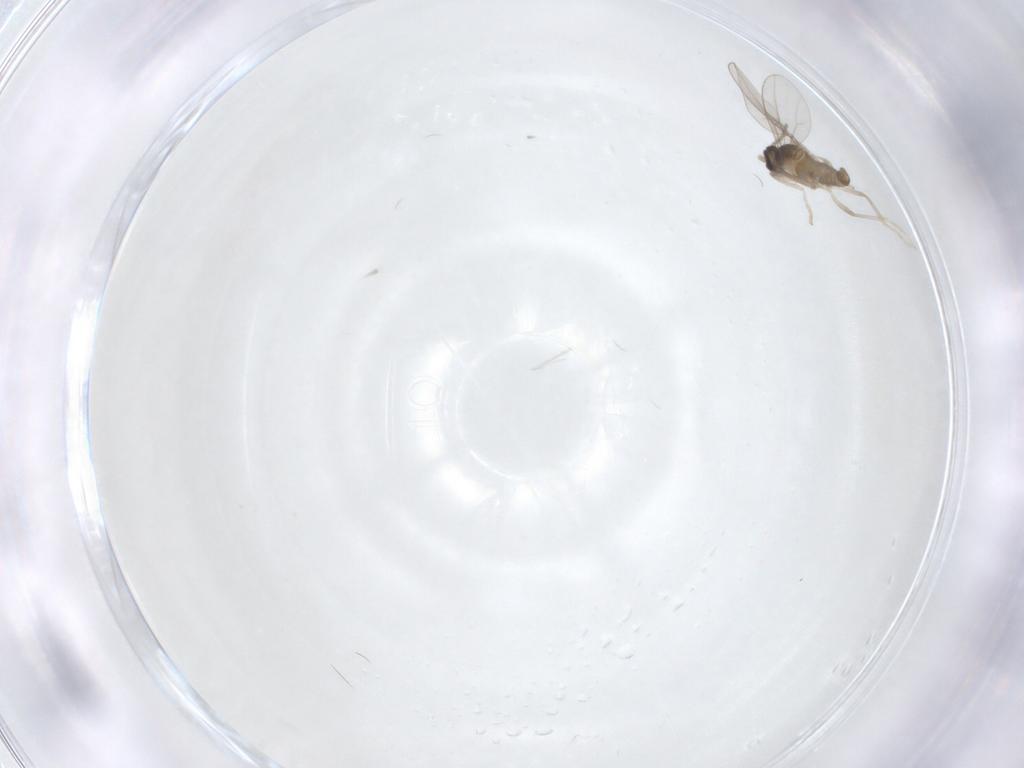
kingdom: Animalia
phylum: Arthropoda
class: Insecta
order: Diptera
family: Cecidomyiidae
